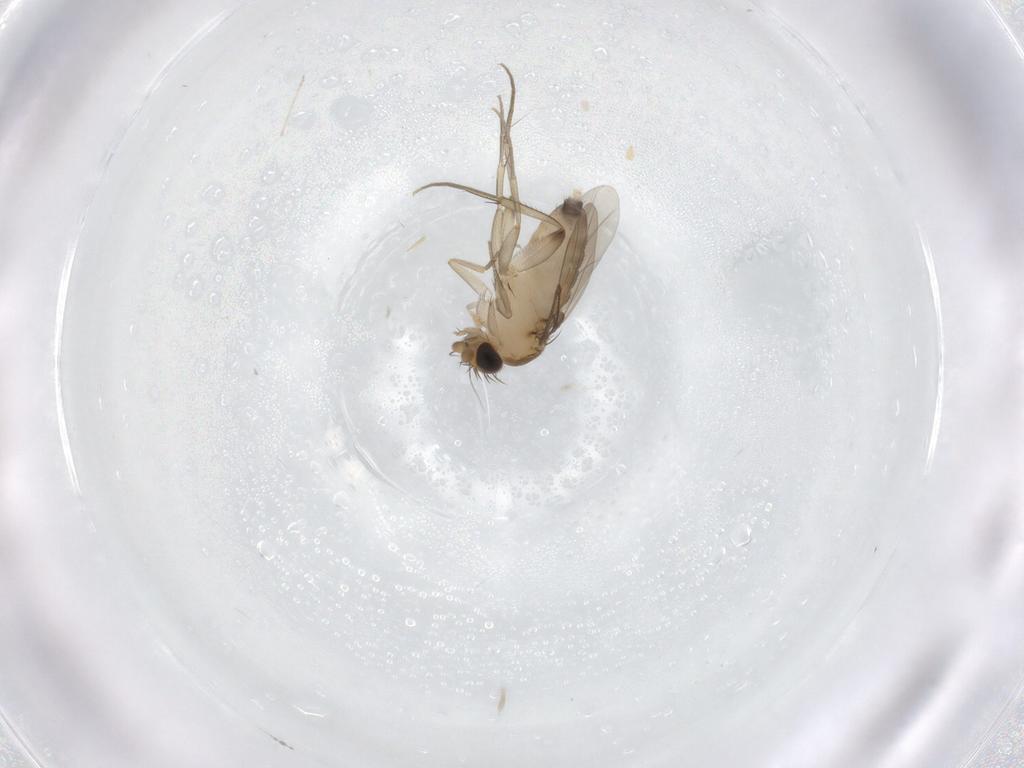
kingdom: Animalia
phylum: Arthropoda
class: Insecta
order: Diptera
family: Phoridae
